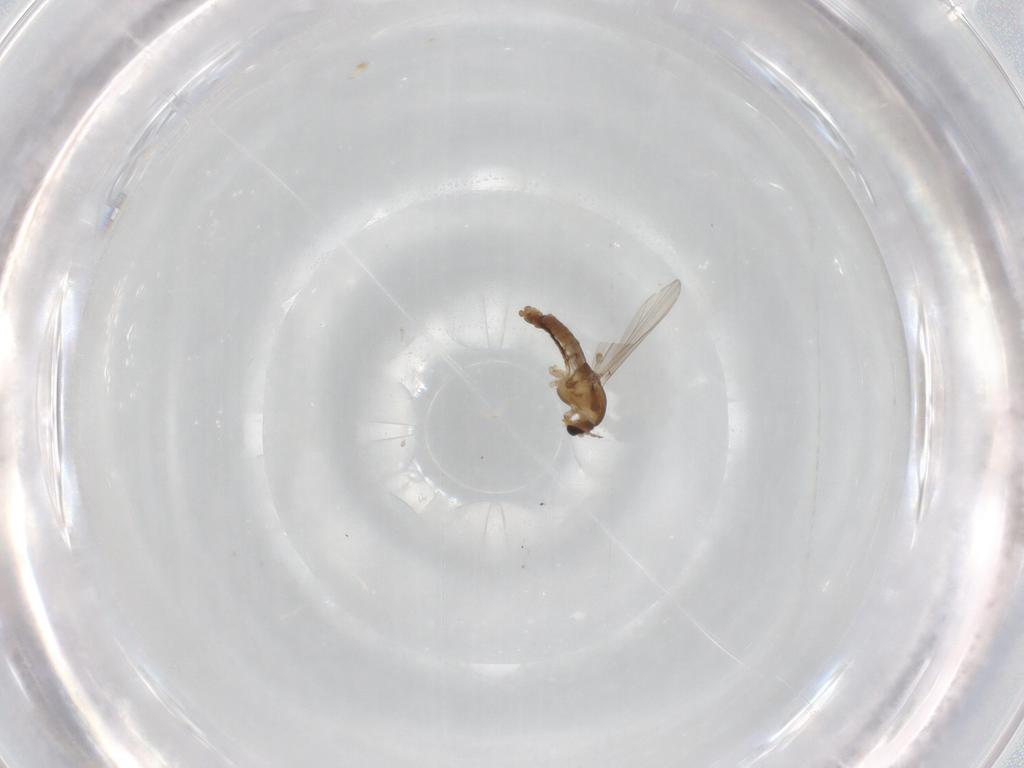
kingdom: Animalia
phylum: Arthropoda
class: Insecta
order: Diptera
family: Chironomidae
